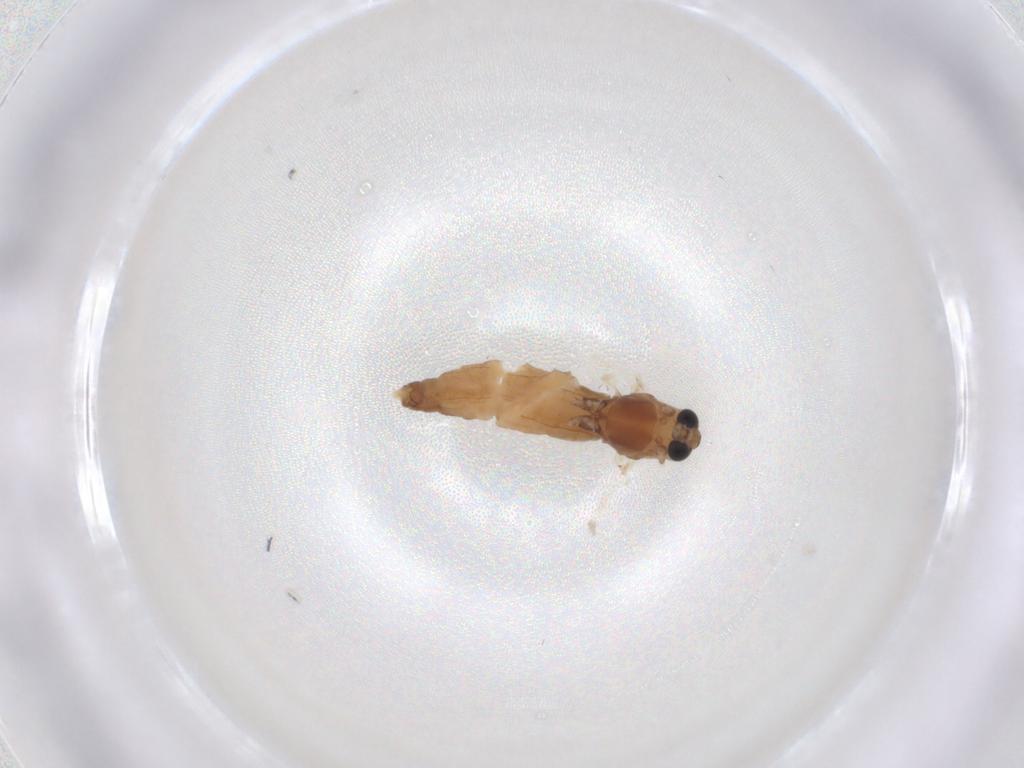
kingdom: Animalia
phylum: Arthropoda
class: Insecta
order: Diptera
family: Chironomidae
